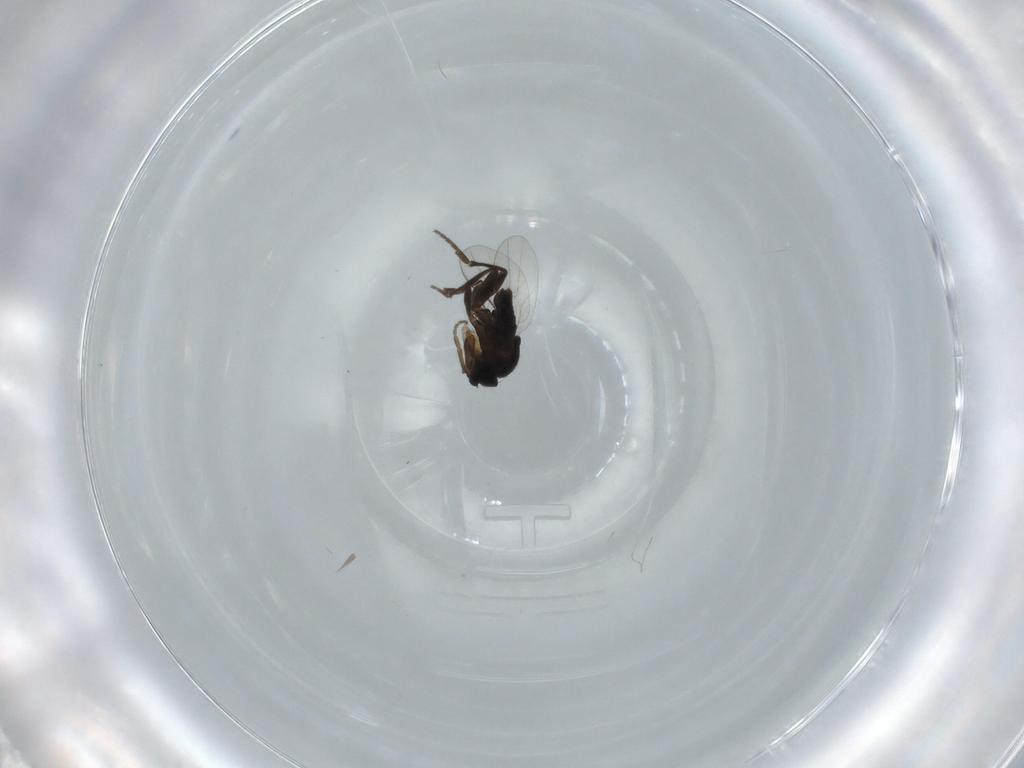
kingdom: Animalia
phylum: Arthropoda
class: Insecta
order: Diptera
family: Phoridae
